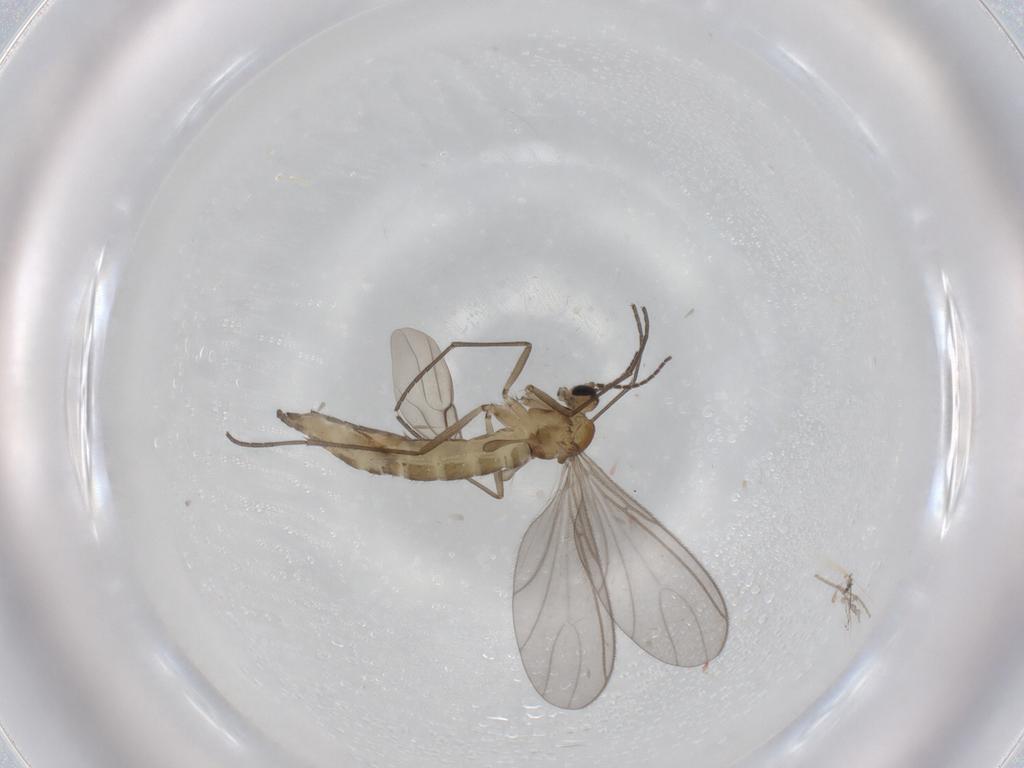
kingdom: Animalia
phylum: Arthropoda
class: Insecta
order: Diptera
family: Sciaridae
